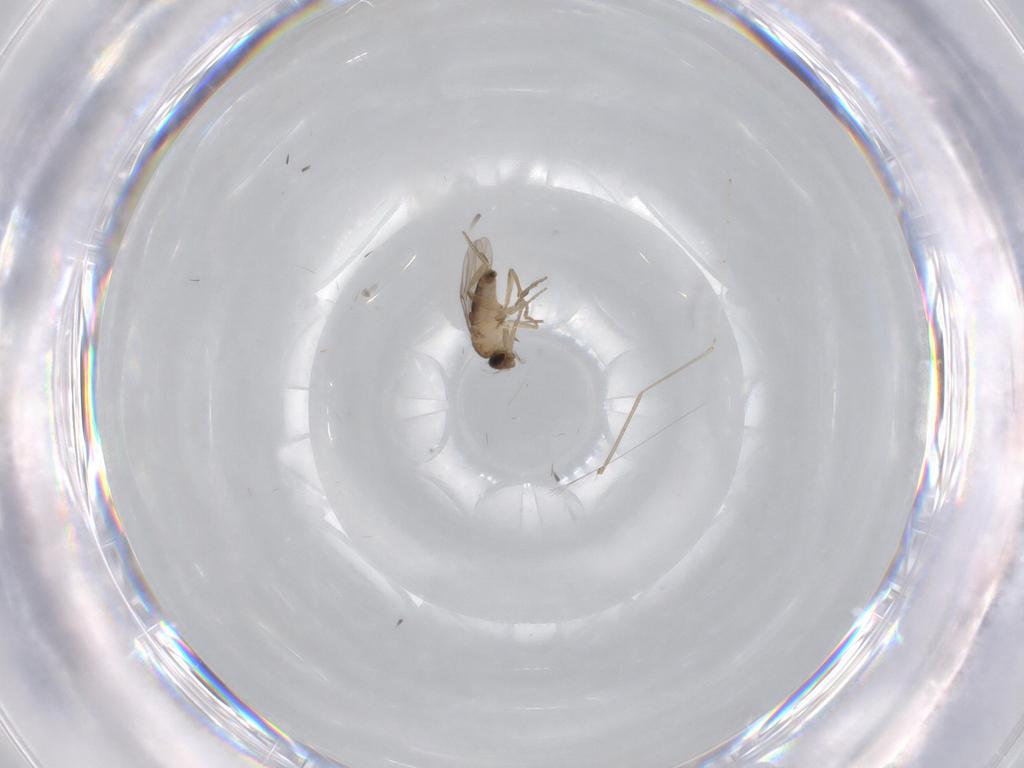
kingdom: Animalia
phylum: Arthropoda
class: Insecta
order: Diptera
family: Cecidomyiidae
